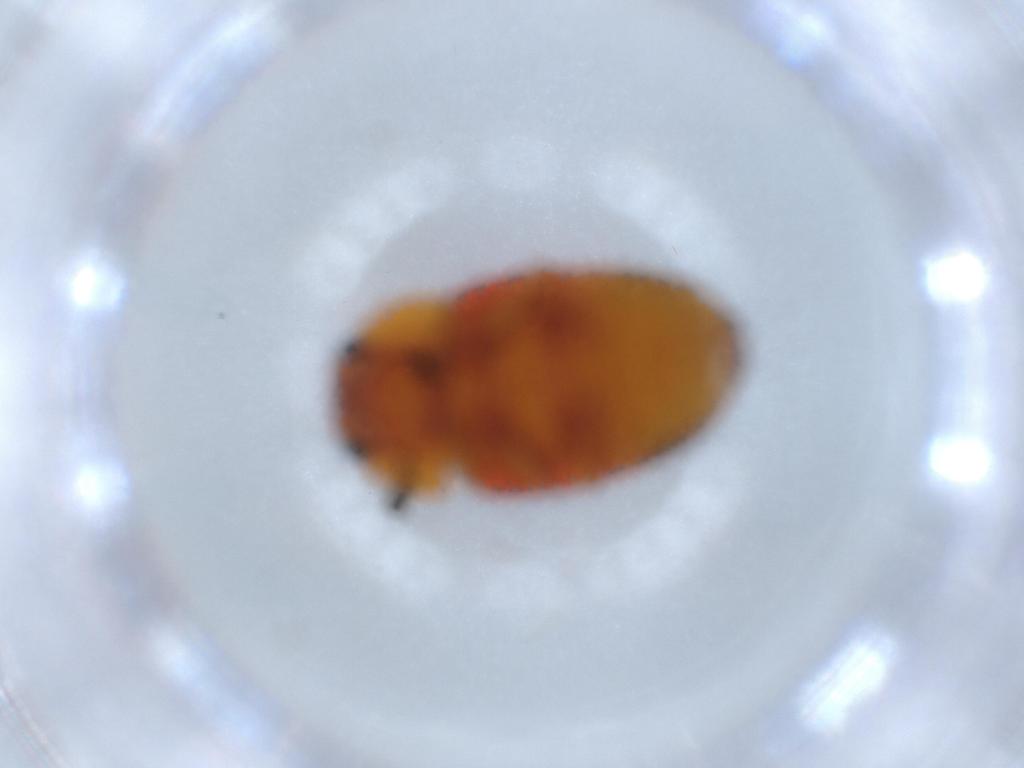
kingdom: Animalia
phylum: Arthropoda
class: Insecta
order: Coleoptera
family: Erotylidae
